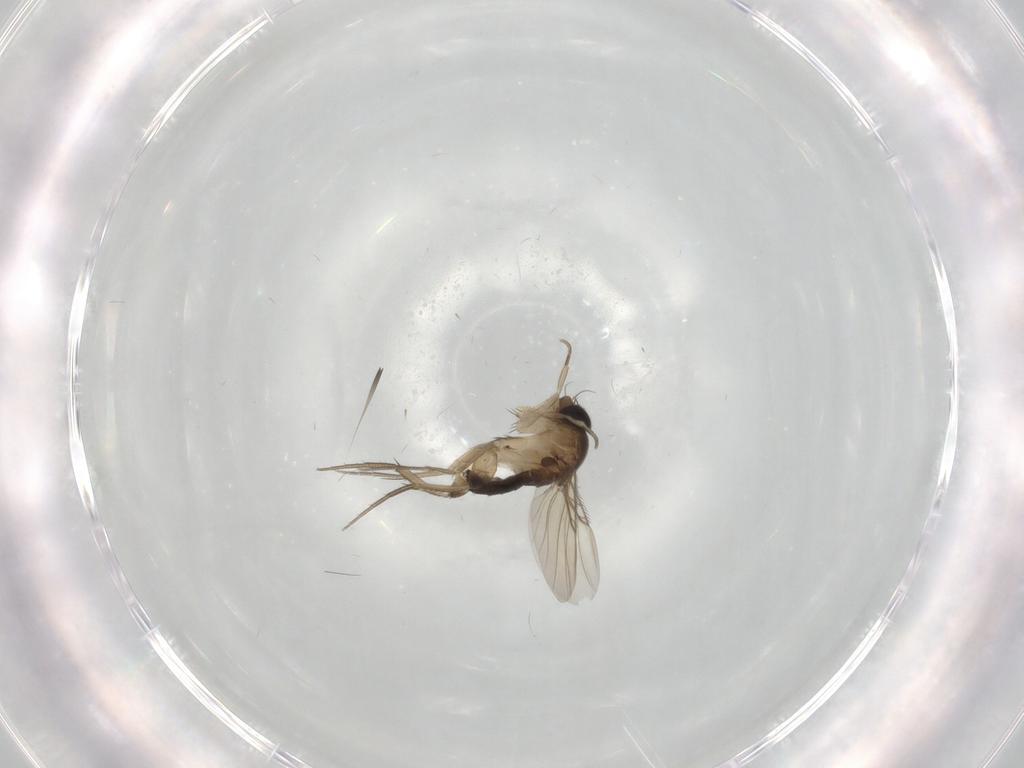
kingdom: Animalia
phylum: Arthropoda
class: Insecta
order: Diptera
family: Phoridae
